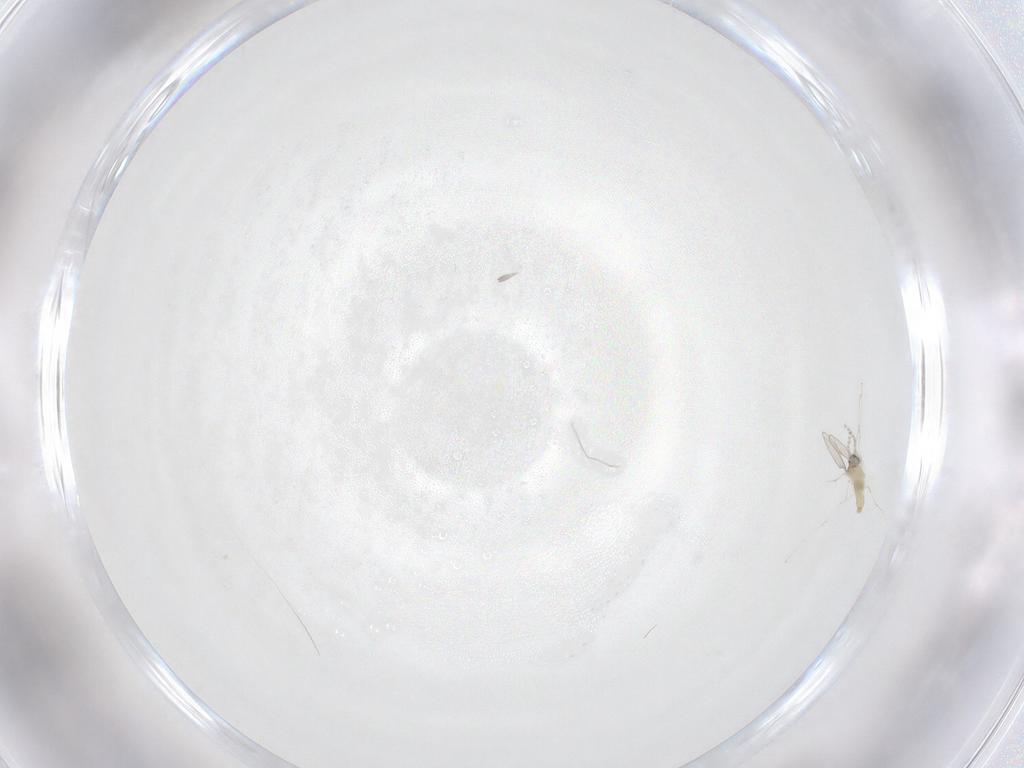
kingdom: Animalia
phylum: Arthropoda
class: Insecta
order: Diptera
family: Cecidomyiidae
